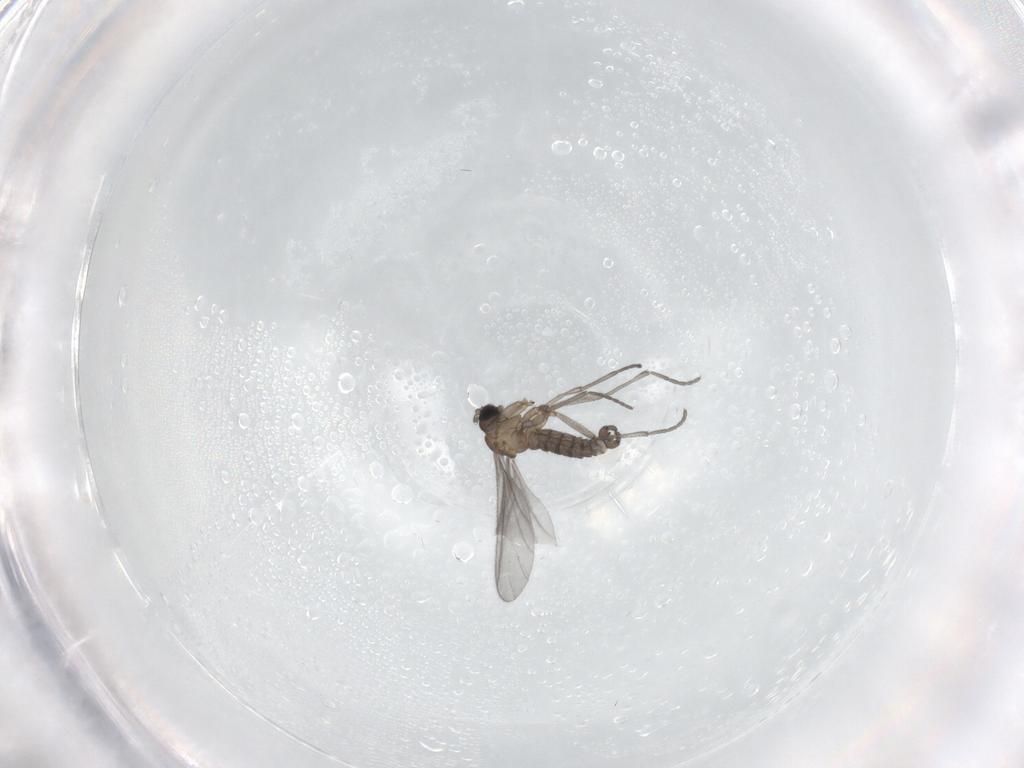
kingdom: Animalia
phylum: Arthropoda
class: Insecta
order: Diptera
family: Sciaridae
